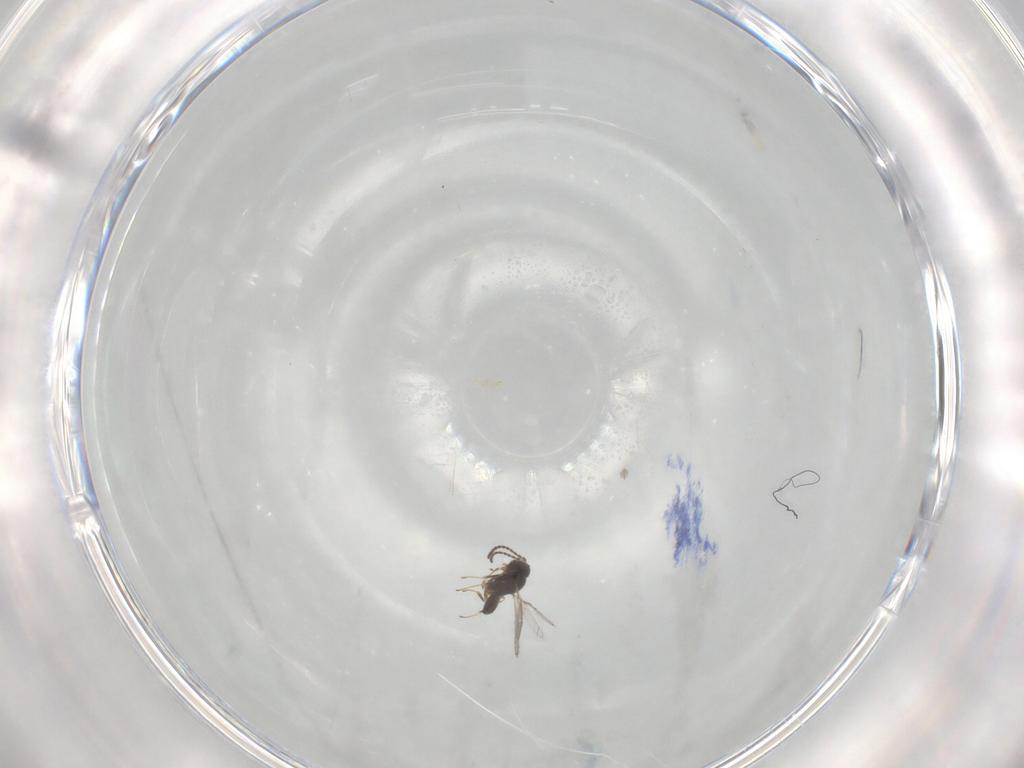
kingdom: Animalia
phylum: Arthropoda
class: Insecta
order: Hymenoptera
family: Scelionidae
